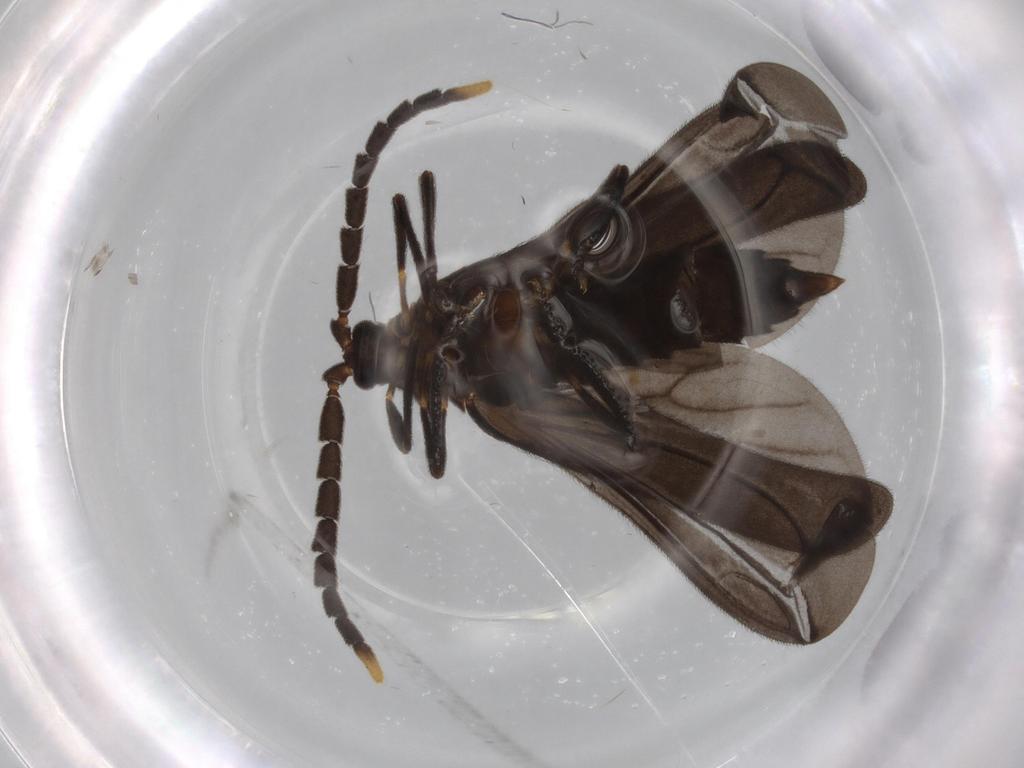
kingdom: Animalia
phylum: Arthropoda
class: Insecta
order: Coleoptera
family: Lycidae
